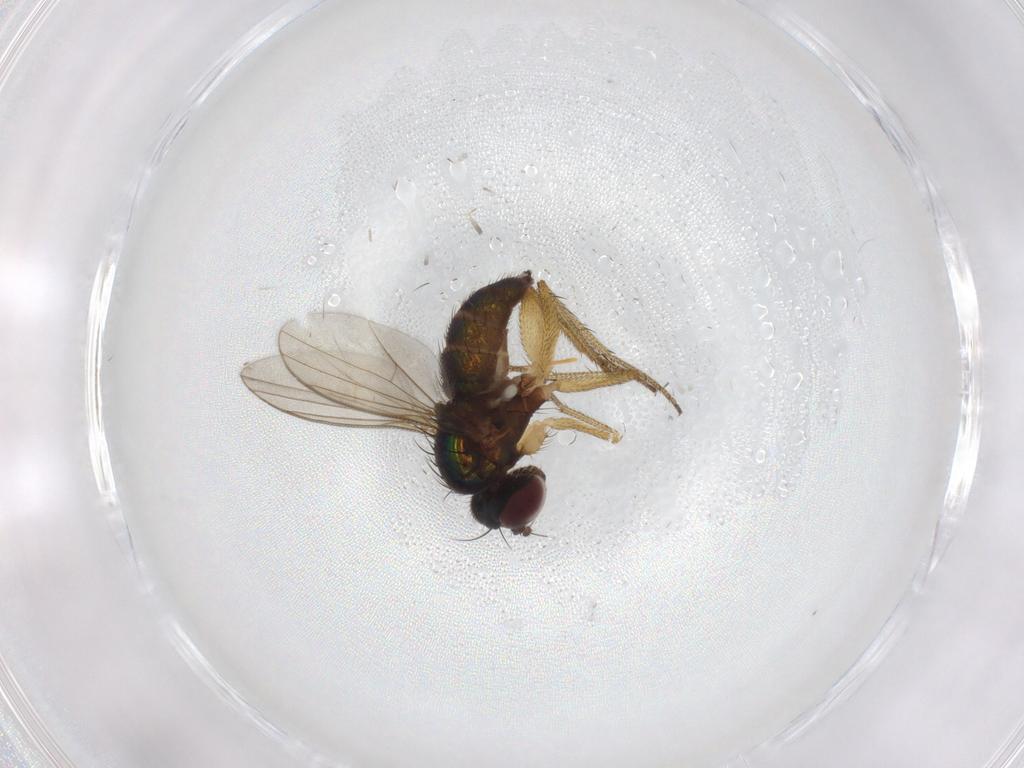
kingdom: Animalia
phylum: Arthropoda
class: Insecta
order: Diptera
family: Dolichopodidae
